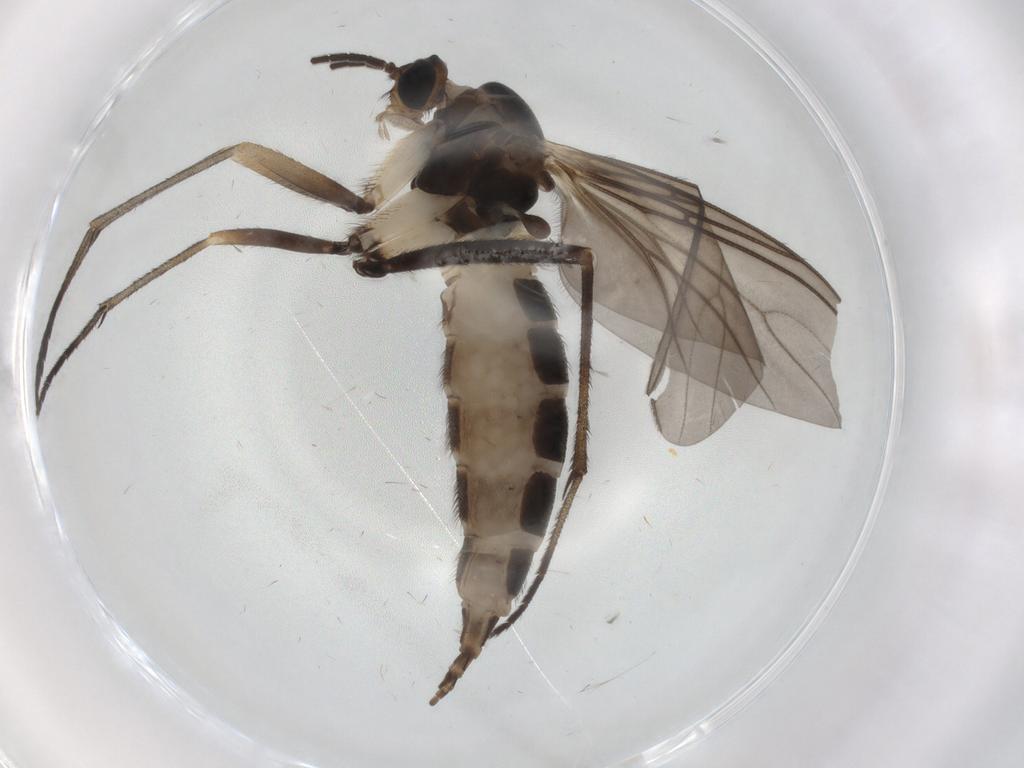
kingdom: Animalia
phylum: Arthropoda
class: Insecta
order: Diptera
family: Sciaridae
